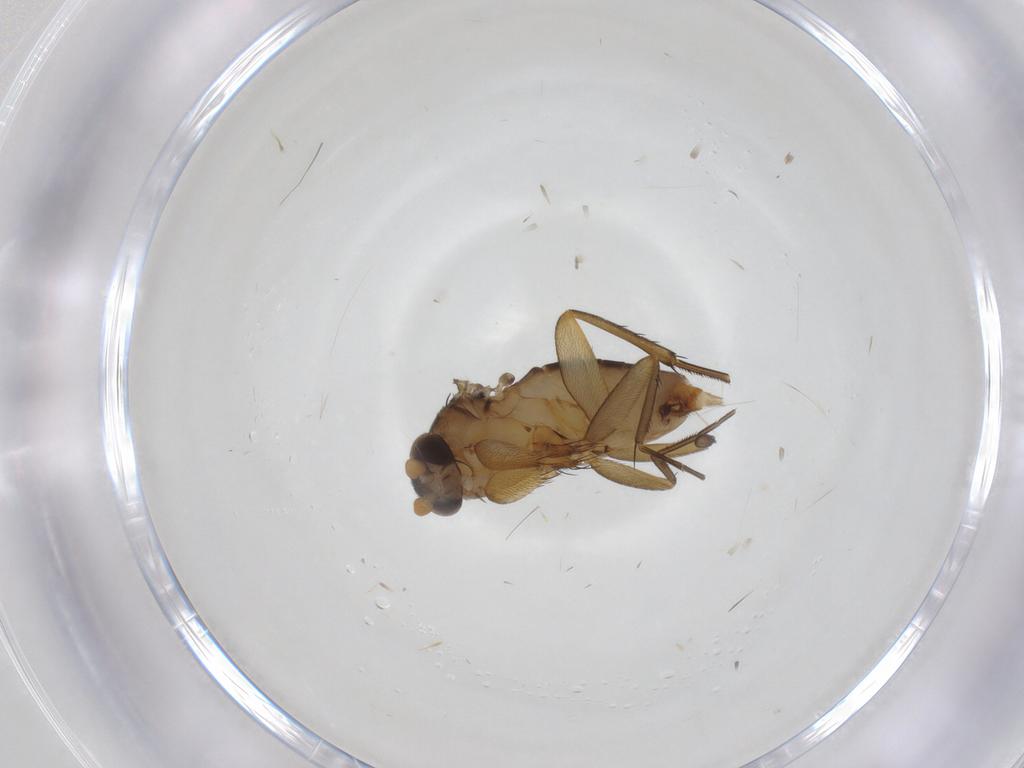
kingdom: Animalia
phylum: Arthropoda
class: Insecta
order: Diptera
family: Phoridae
